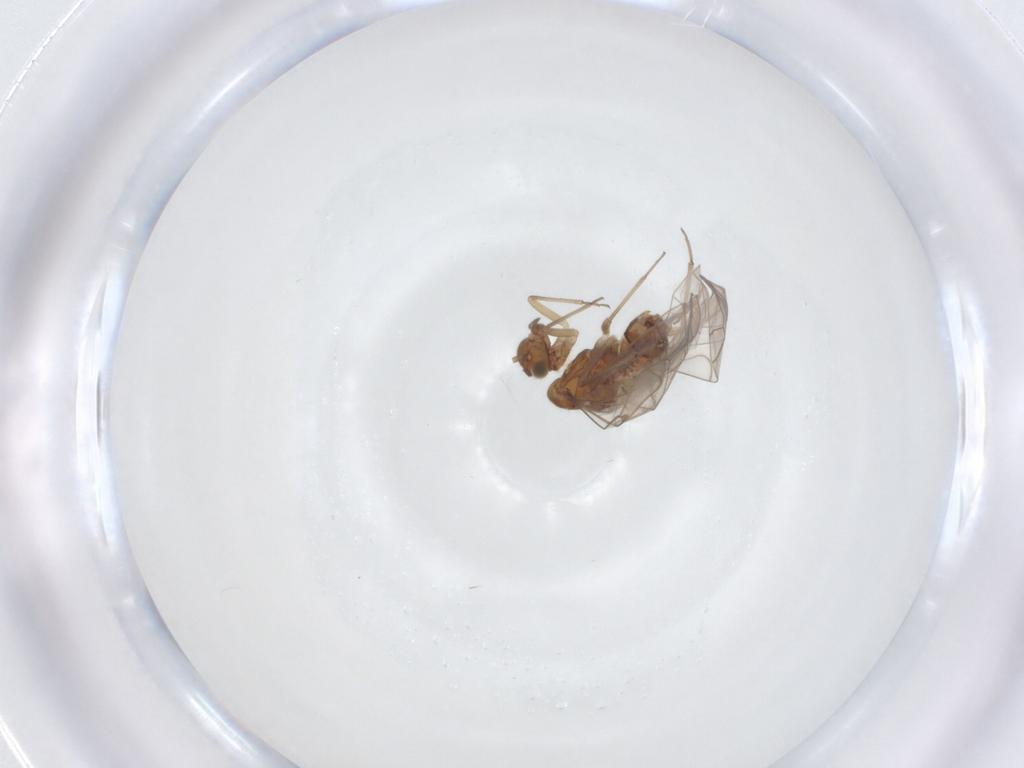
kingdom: Animalia
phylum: Arthropoda
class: Insecta
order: Psocodea
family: Lachesillidae
